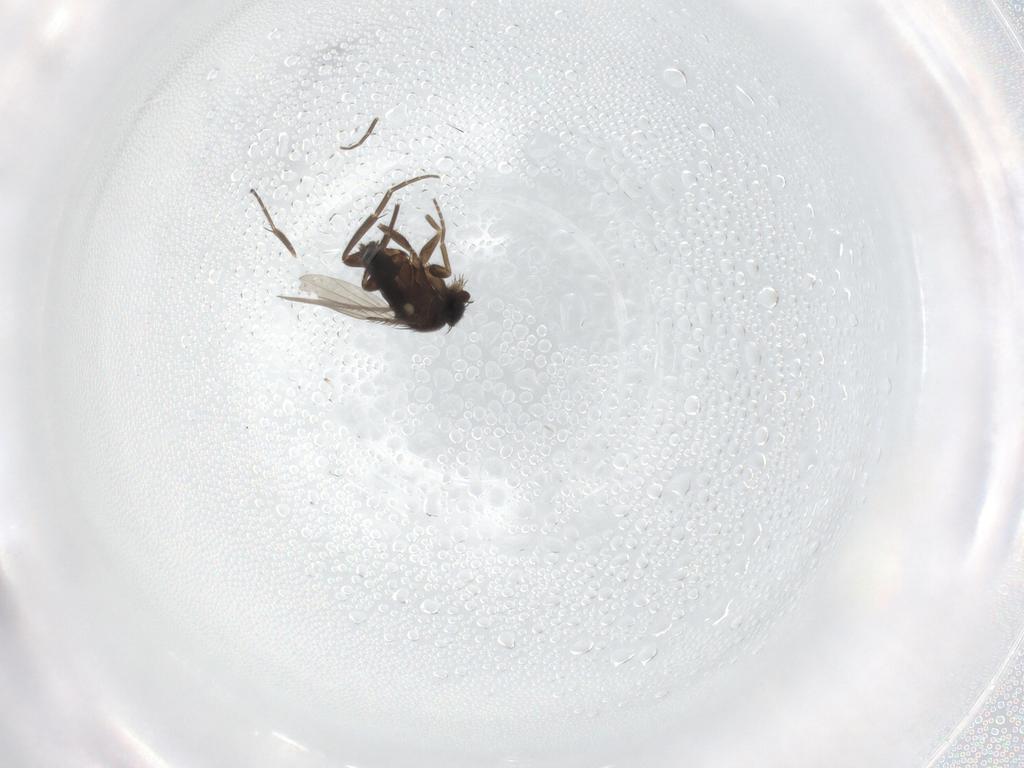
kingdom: Animalia
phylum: Arthropoda
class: Insecta
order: Diptera
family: Phoridae
